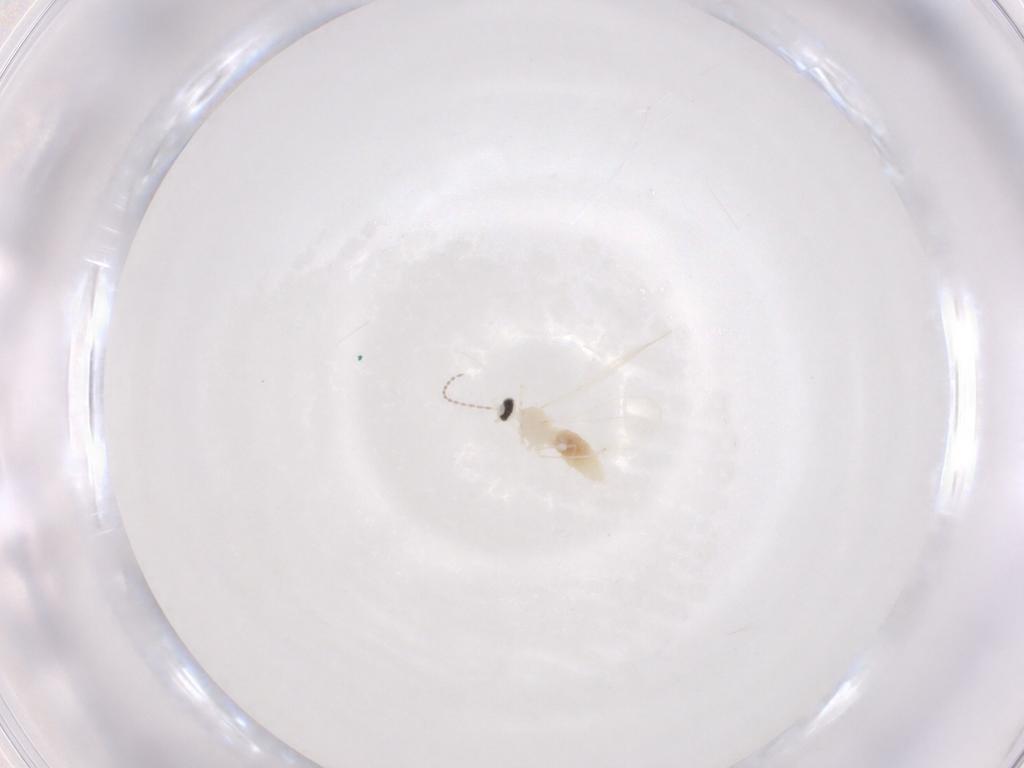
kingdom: Animalia
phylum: Arthropoda
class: Insecta
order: Diptera
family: Cecidomyiidae
